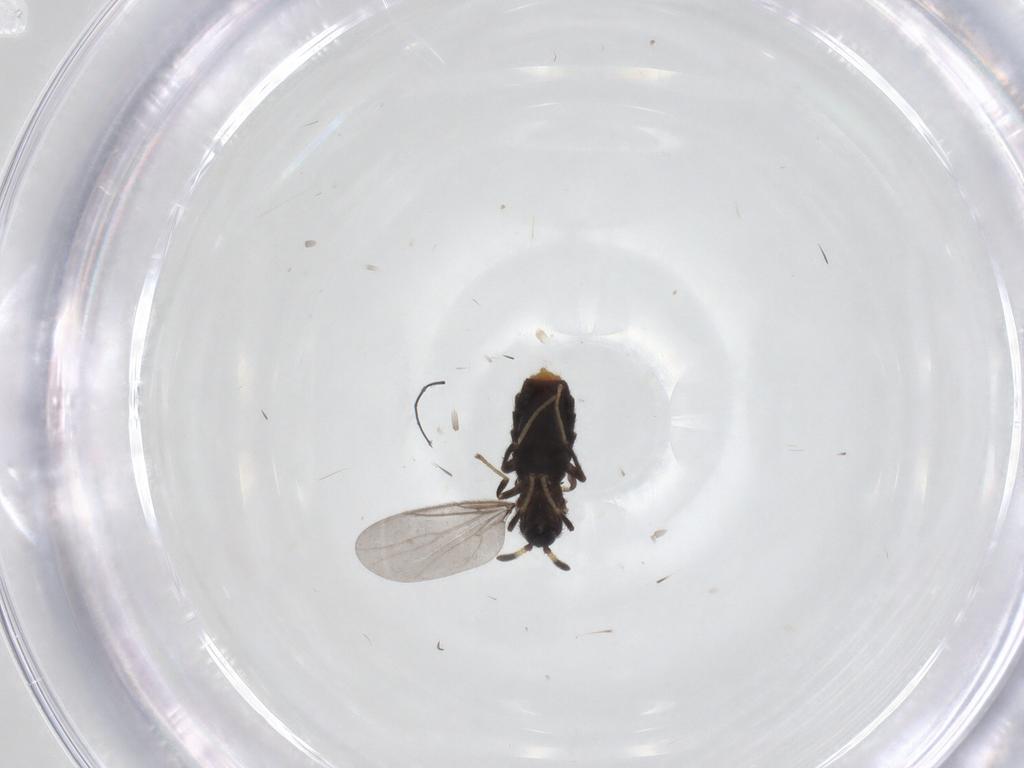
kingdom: Animalia
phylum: Arthropoda
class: Insecta
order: Diptera
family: Scatopsidae
